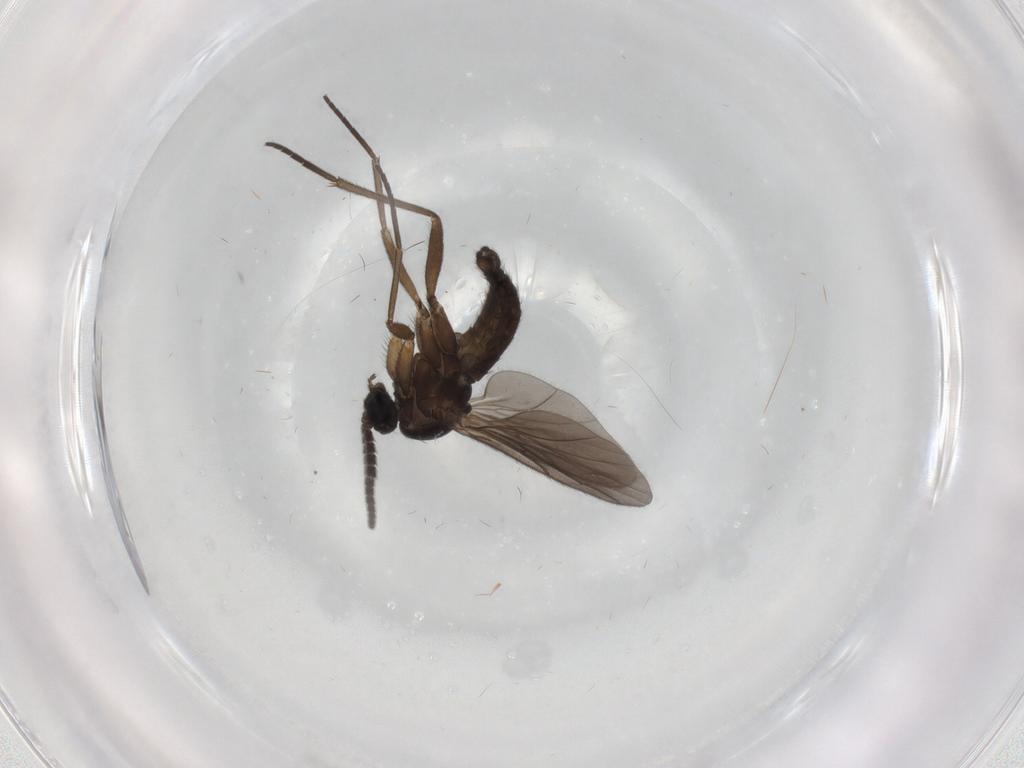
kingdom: Animalia
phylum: Arthropoda
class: Insecta
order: Diptera
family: Sciaridae
